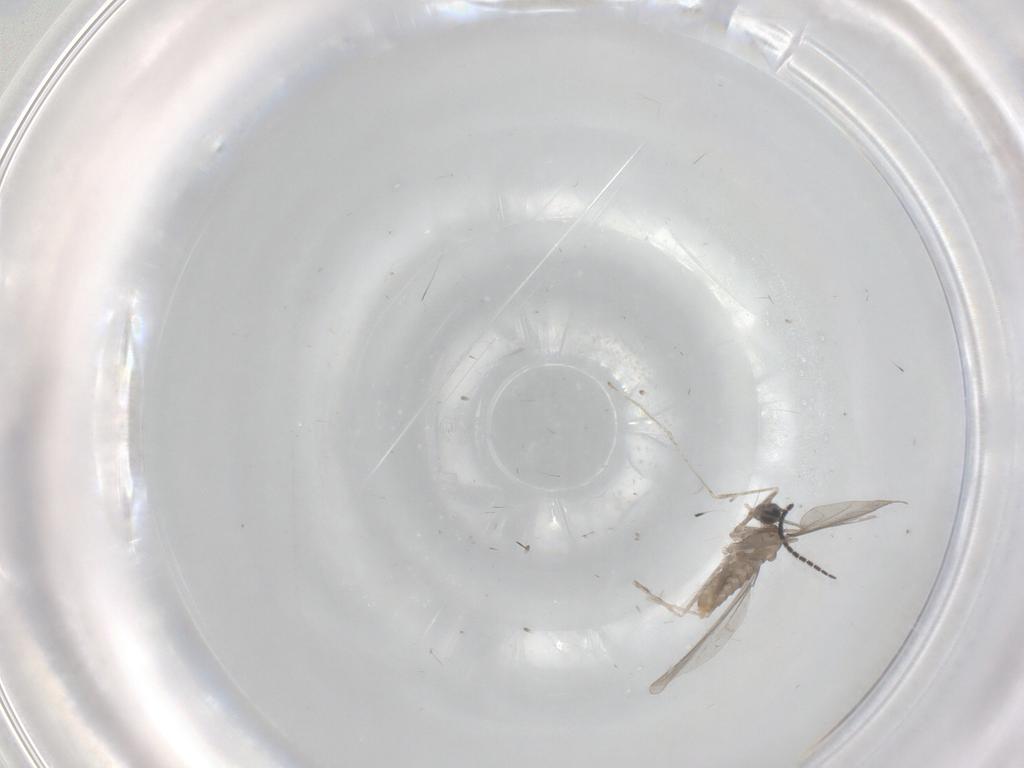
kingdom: Animalia
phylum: Arthropoda
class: Insecta
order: Diptera
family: Cecidomyiidae
